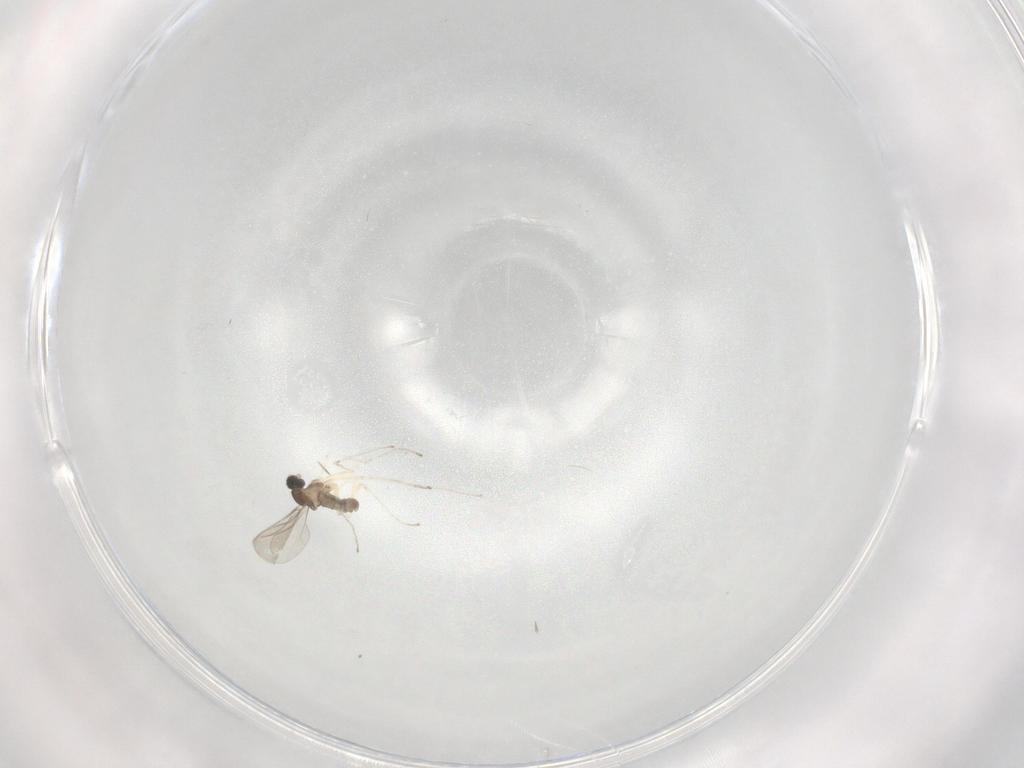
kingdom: Animalia
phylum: Arthropoda
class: Insecta
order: Diptera
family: Cecidomyiidae
